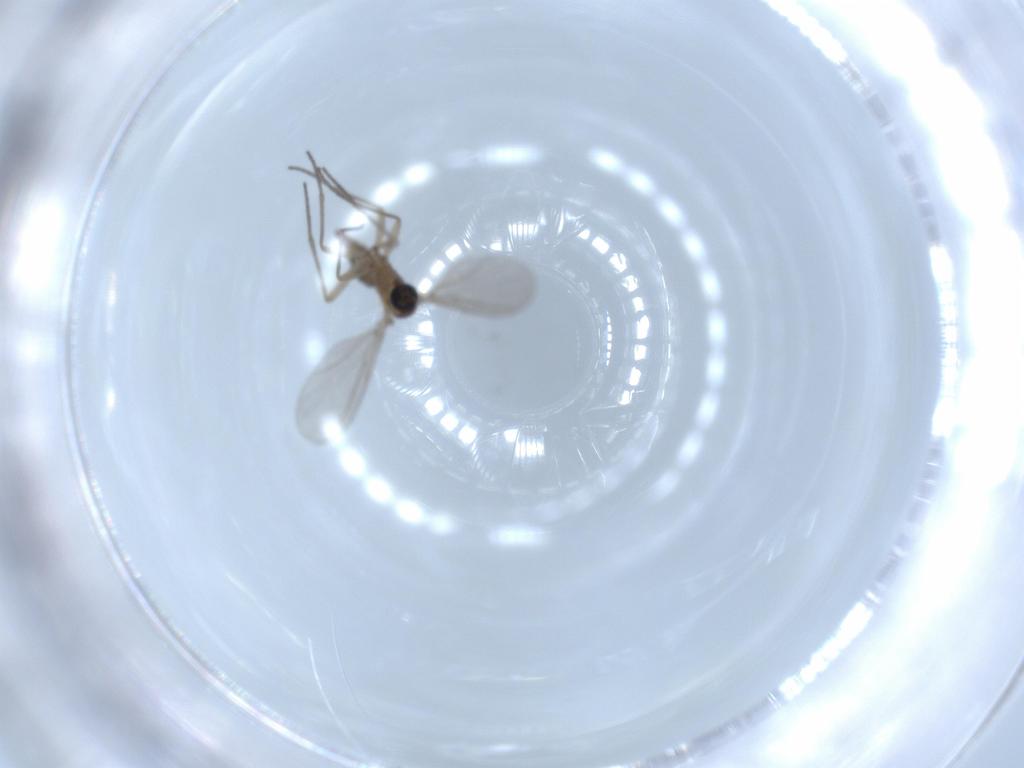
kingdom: Animalia
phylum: Arthropoda
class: Insecta
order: Diptera
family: Sciaridae
